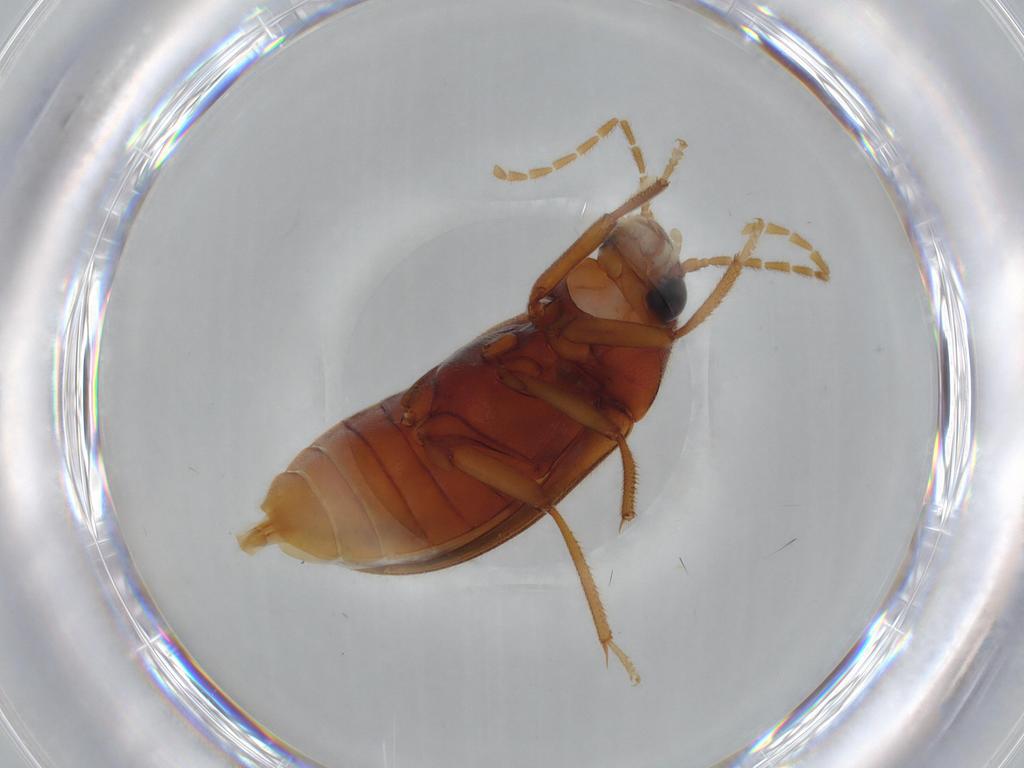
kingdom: Animalia
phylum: Arthropoda
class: Insecta
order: Coleoptera
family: Ptilodactylidae
